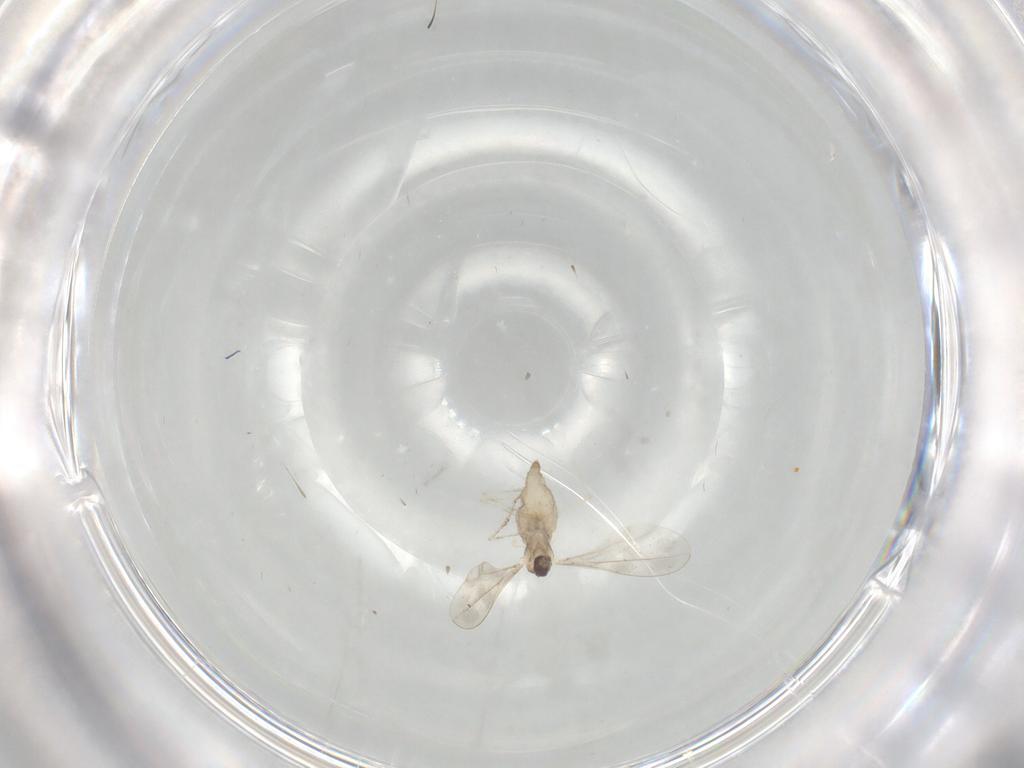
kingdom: Animalia
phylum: Arthropoda
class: Insecta
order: Diptera
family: Cecidomyiidae
